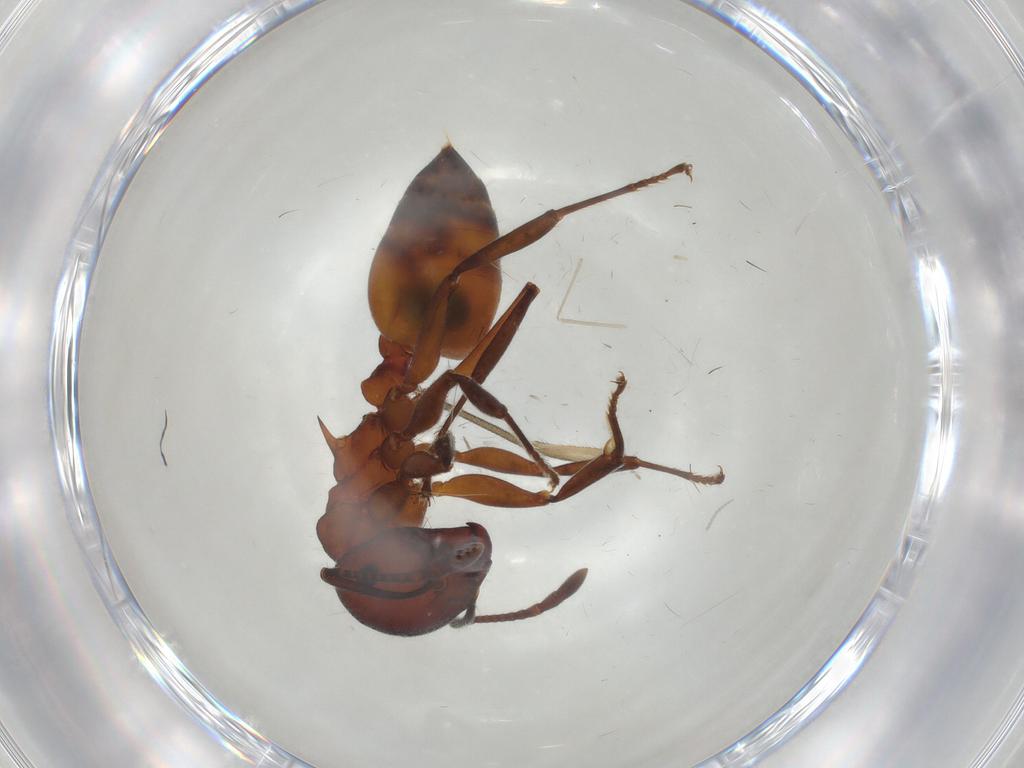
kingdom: Animalia
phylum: Arthropoda
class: Insecta
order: Hymenoptera
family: Formicidae
